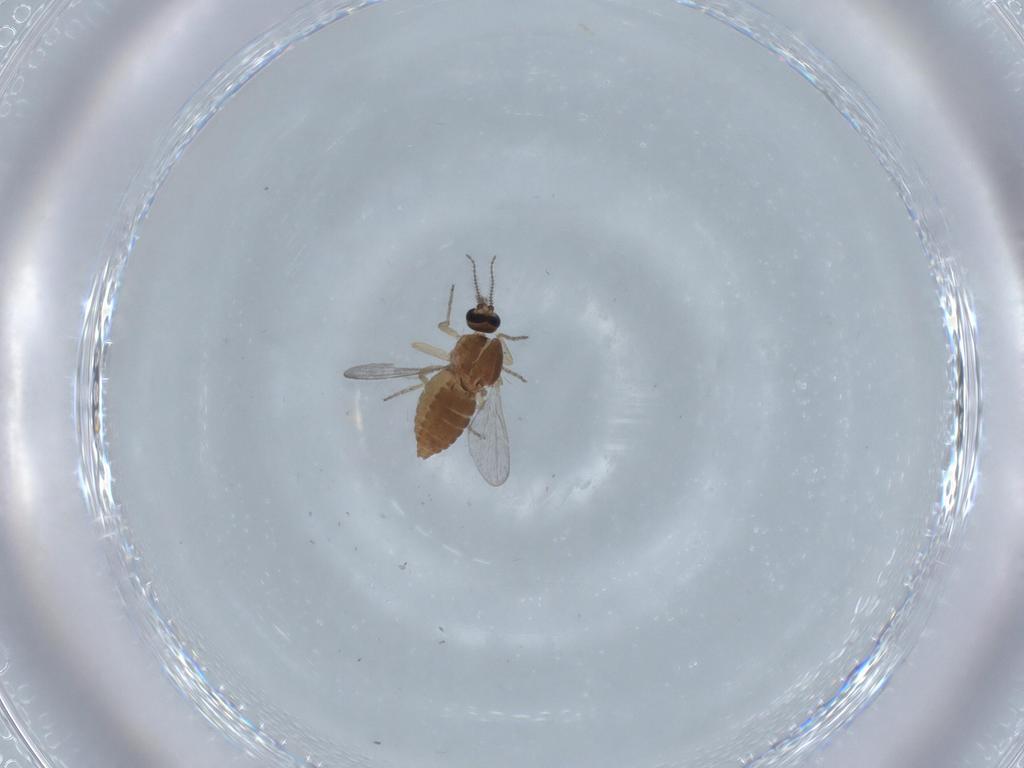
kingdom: Animalia
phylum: Arthropoda
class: Insecta
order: Diptera
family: Ceratopogonidae
